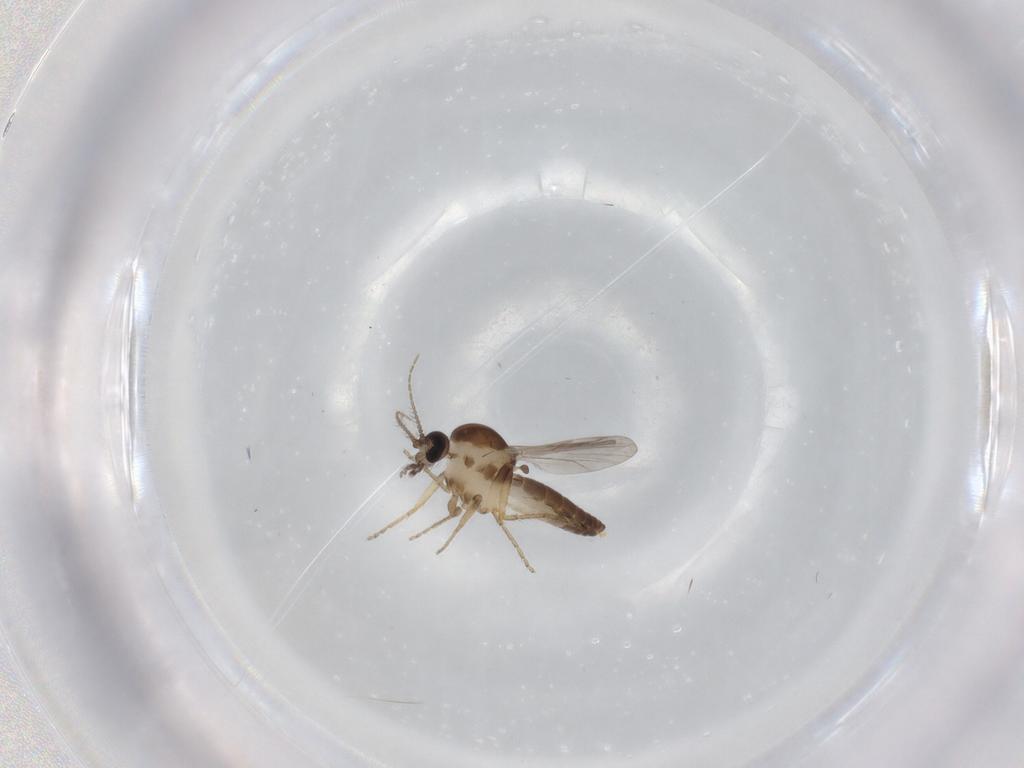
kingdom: Animalia
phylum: Arthropoda
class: Insecta
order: Diptera
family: Ceratopogonidae
